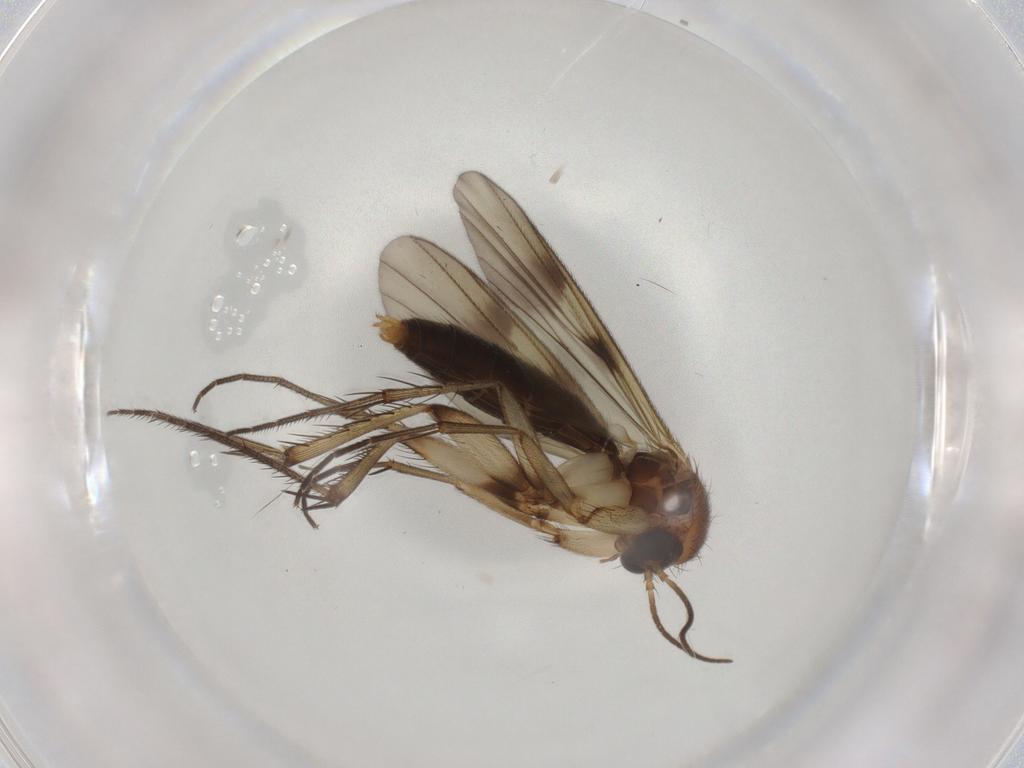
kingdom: Animalia
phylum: Arthropoda
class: Insecta
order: Diptera
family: Mycetophilidae
